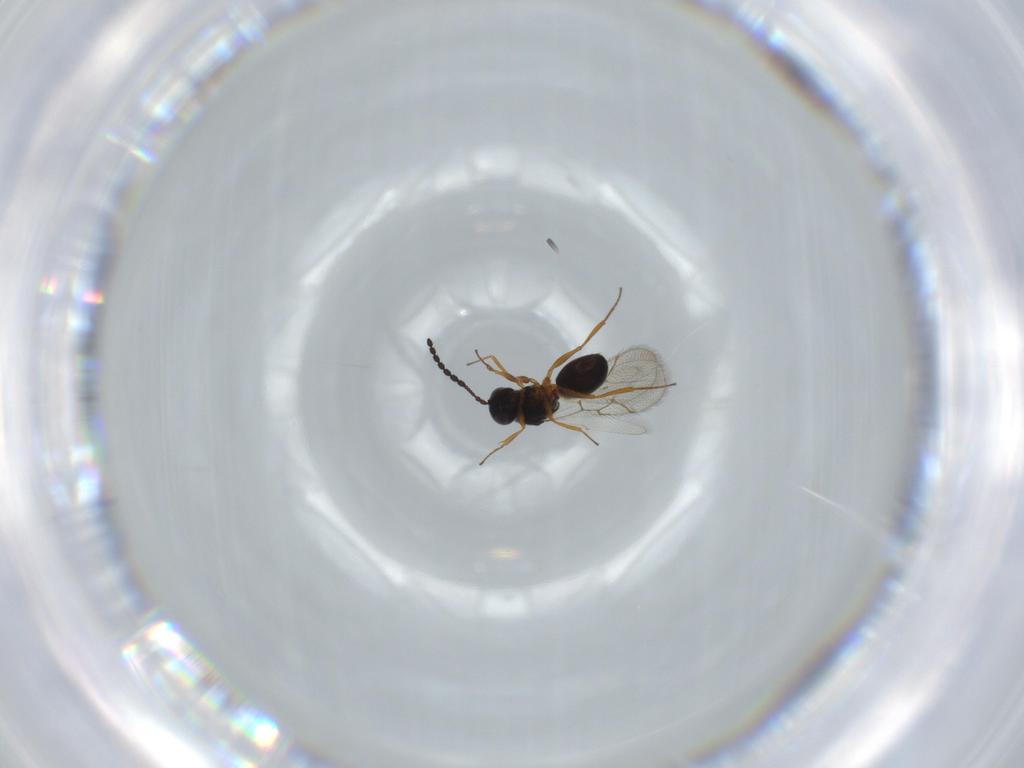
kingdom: Animalia
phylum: Arthropoda
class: Insecta
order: Hymenoptera
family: Figitidae
